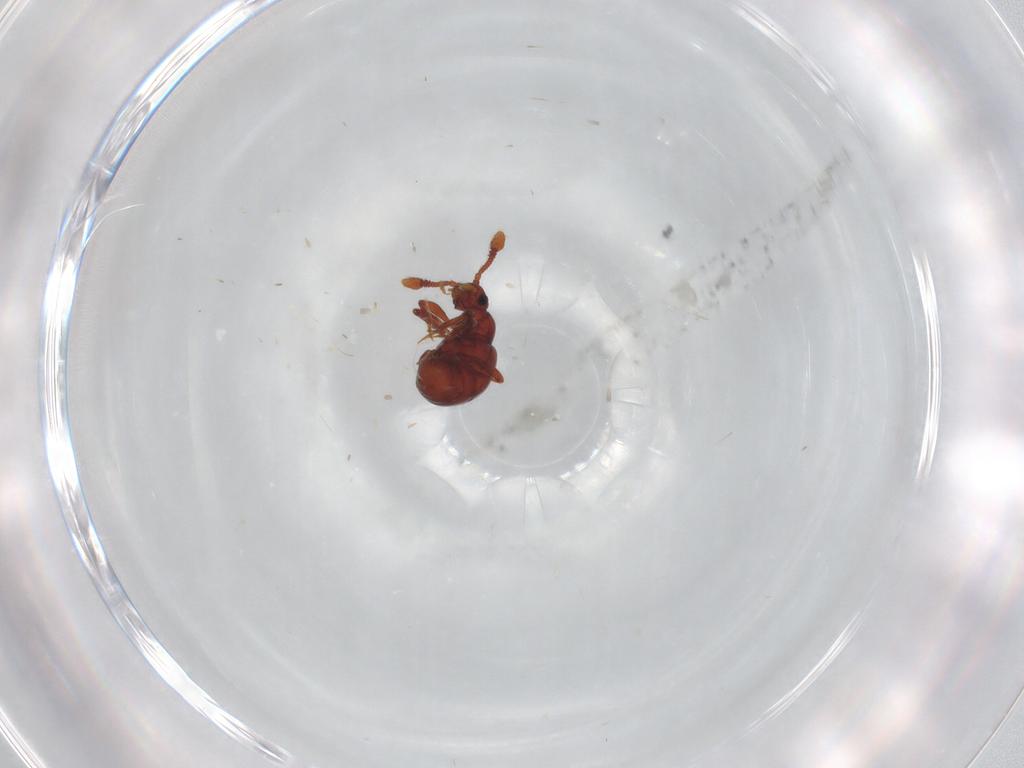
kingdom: Animalia
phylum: Arthropoda
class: Insecta
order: Coleoptera
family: Staphylinidae
